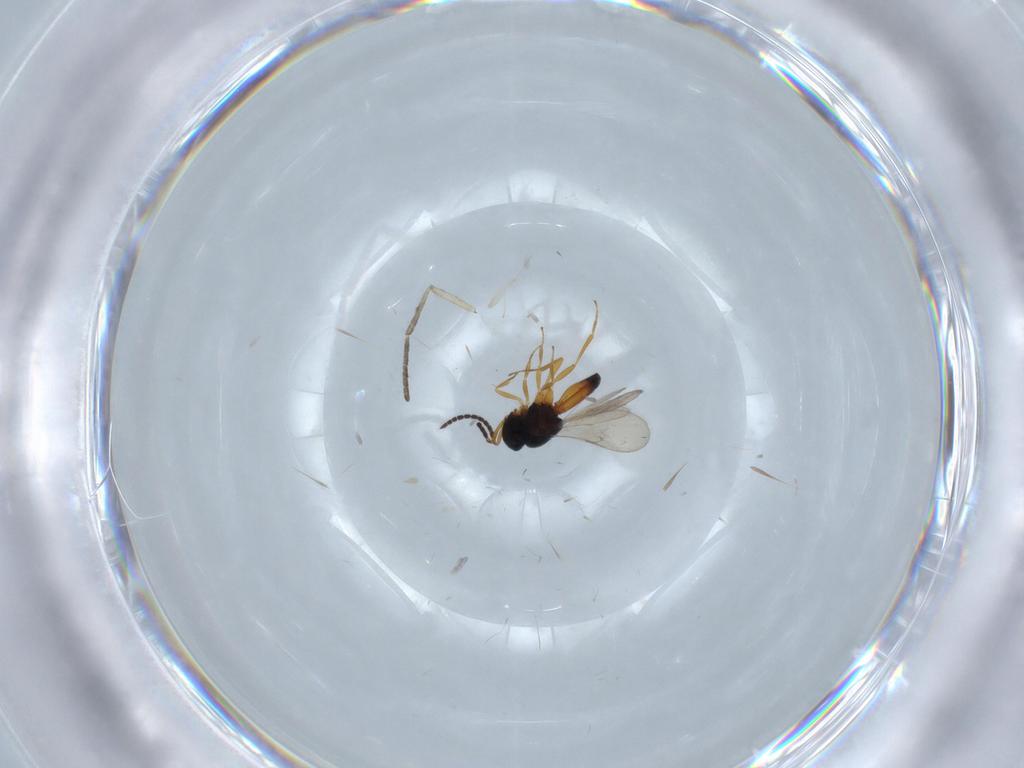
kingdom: Animalia
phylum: Arthropoda
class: Insecta
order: Hymenoptera
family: Scelionidae
